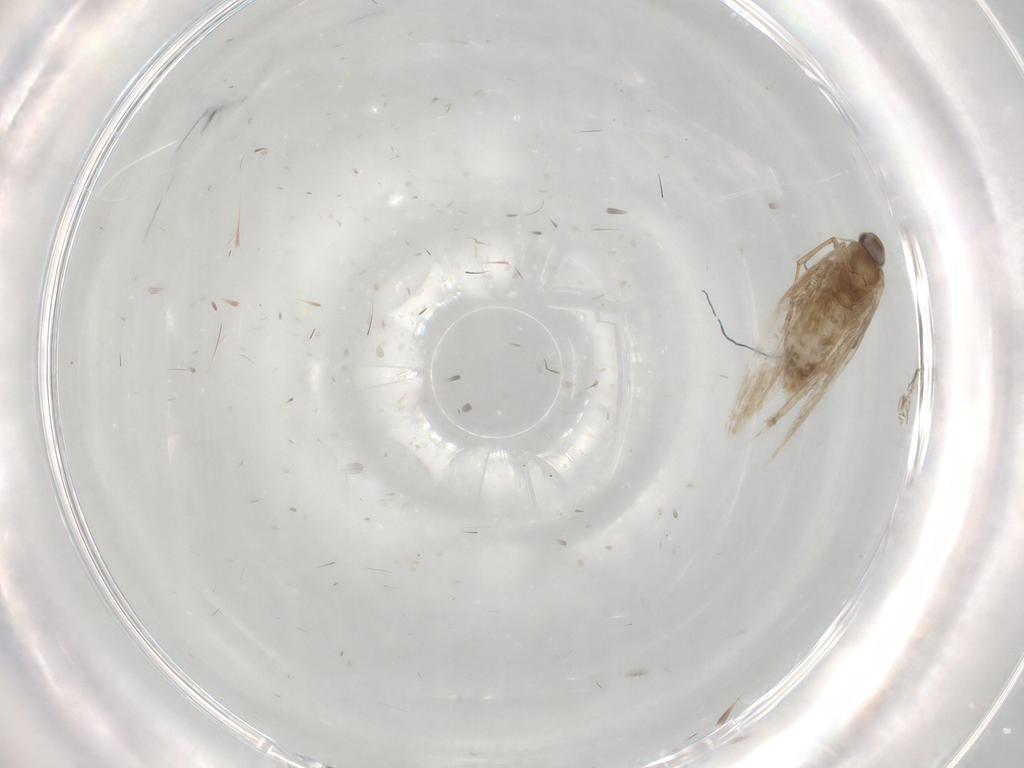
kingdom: Animalia
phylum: Arthropoda
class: Insecta
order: Lepidoptera
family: Gracillariidae
